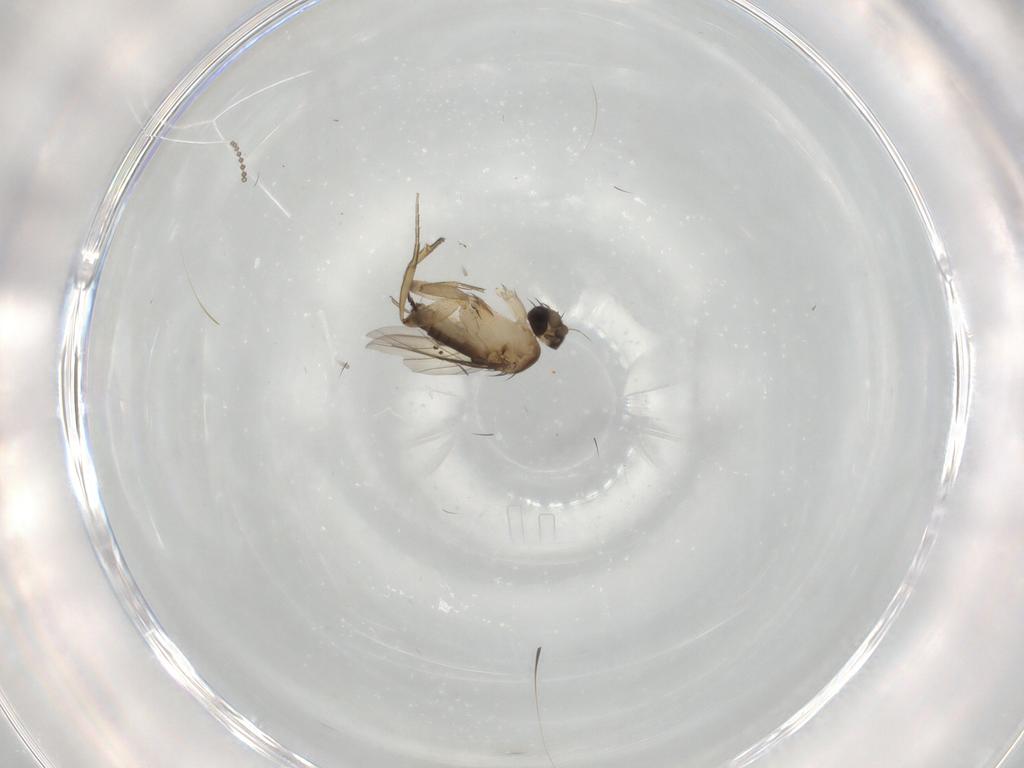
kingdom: Animalia
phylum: Arthropoda
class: Insecta
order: Diptera
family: Phoridae
